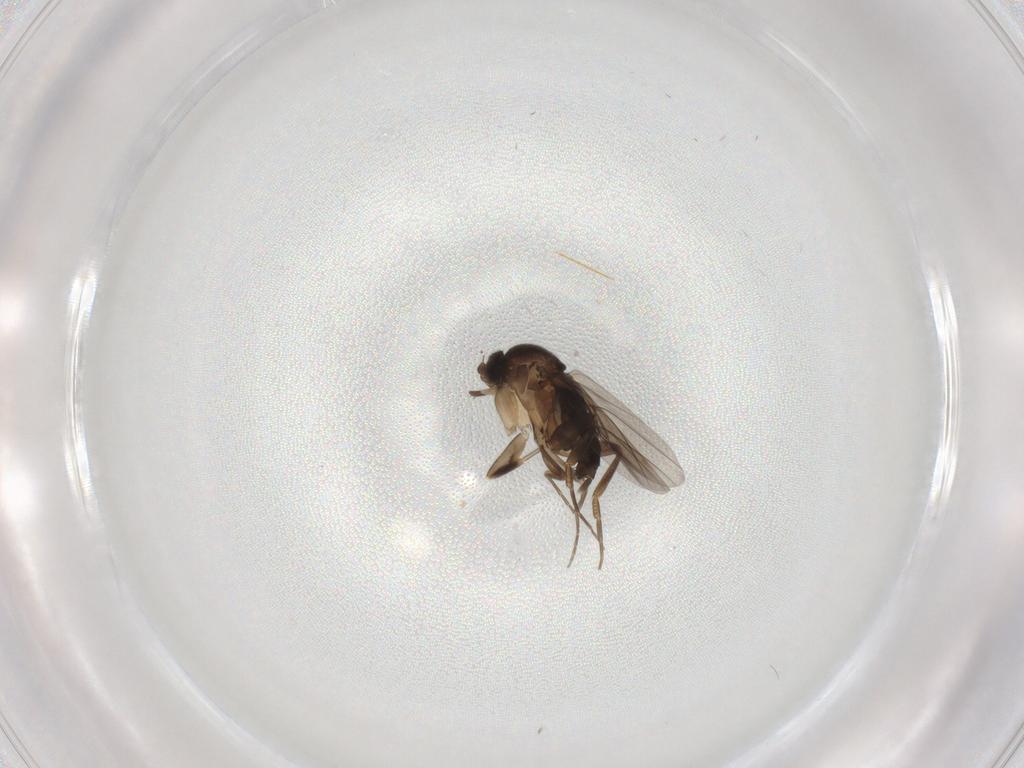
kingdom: Animalia
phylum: Arthropoda
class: Insecta
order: Diptera
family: Phoridae
